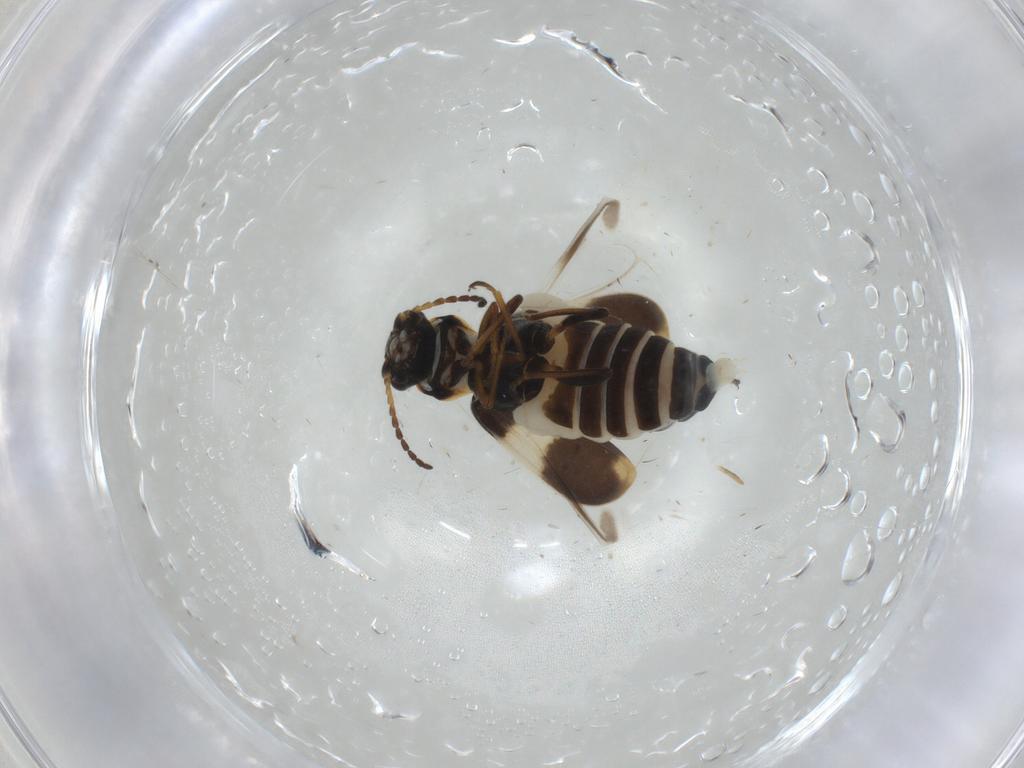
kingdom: Animalia
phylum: Arthropoda
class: Insecta
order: Coleoptera
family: Melyridae
